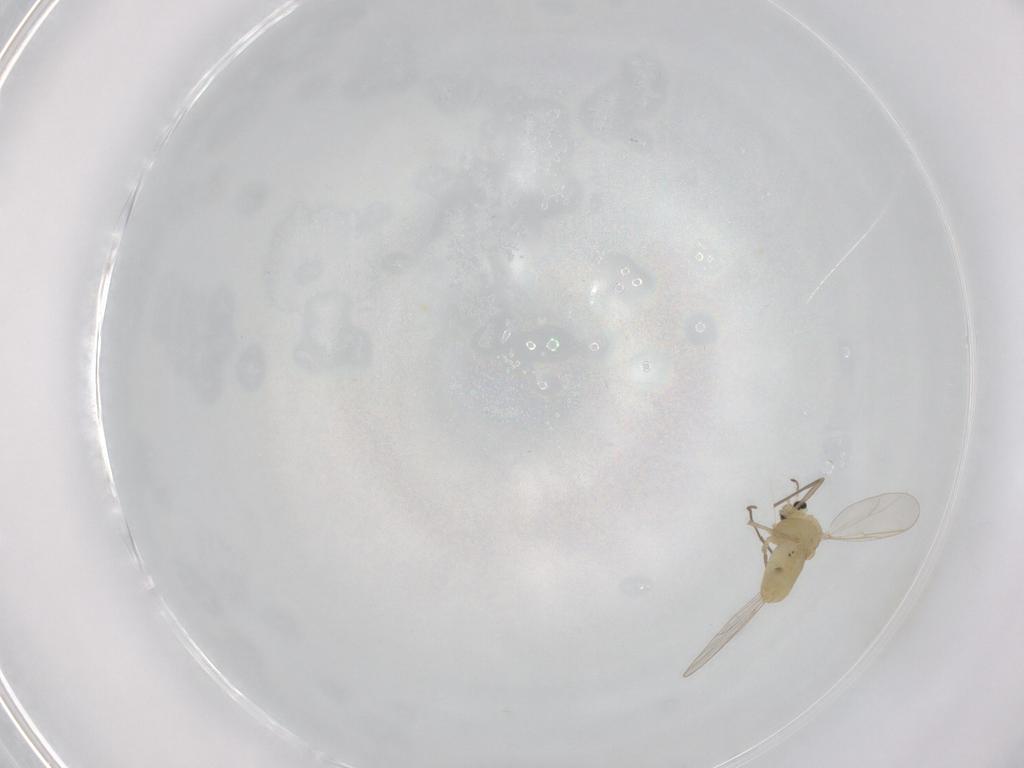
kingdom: Animalia
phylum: Arthropoda
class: Insecta
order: Diptera
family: Chironomidae
